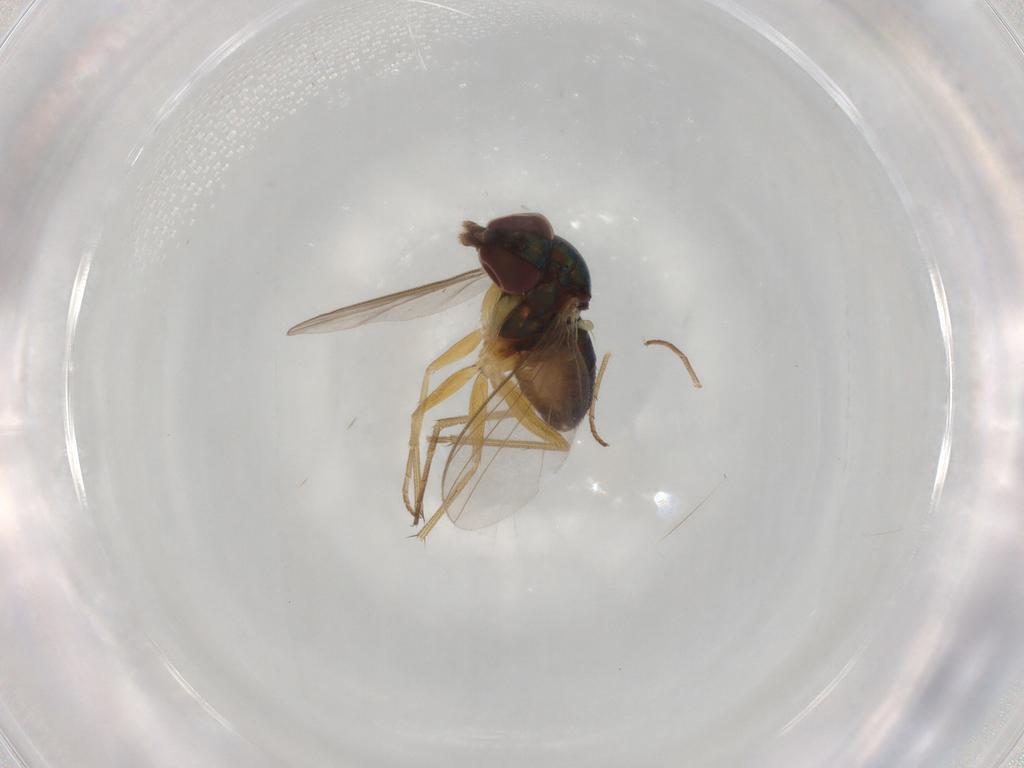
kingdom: Animalia
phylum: Arthropoda
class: Insecta
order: Diptera
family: Dolichopodidae
